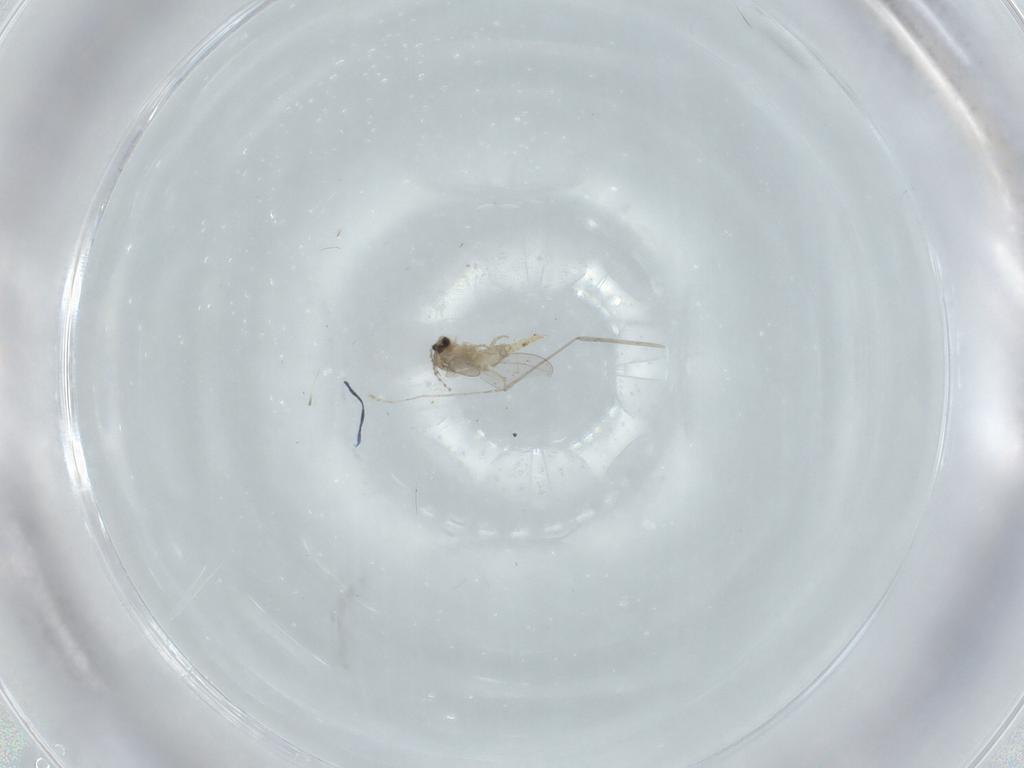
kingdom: Animalia
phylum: Arthropoda
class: Insecta
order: Diptera
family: Cecidomyiidae
